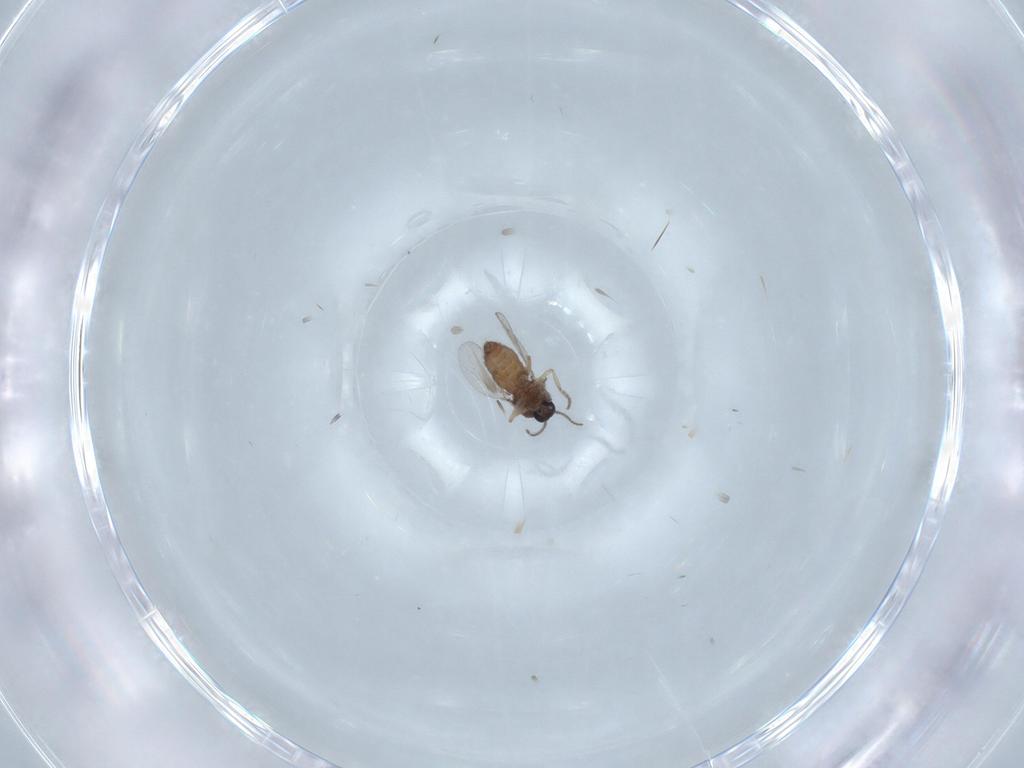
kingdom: Animalia
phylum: Arthropoda
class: Insecta
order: Diptera
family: Ceratopogonidae
